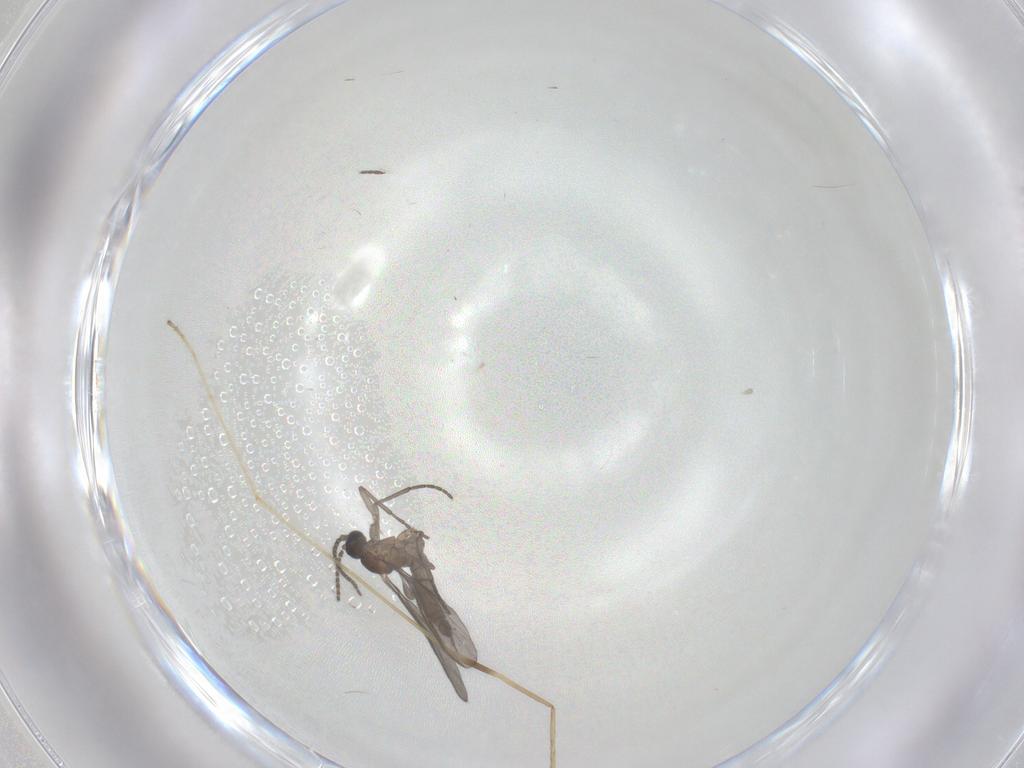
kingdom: Animalia
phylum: Arthropoda
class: Insecta
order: Diptera
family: Sciaridae
